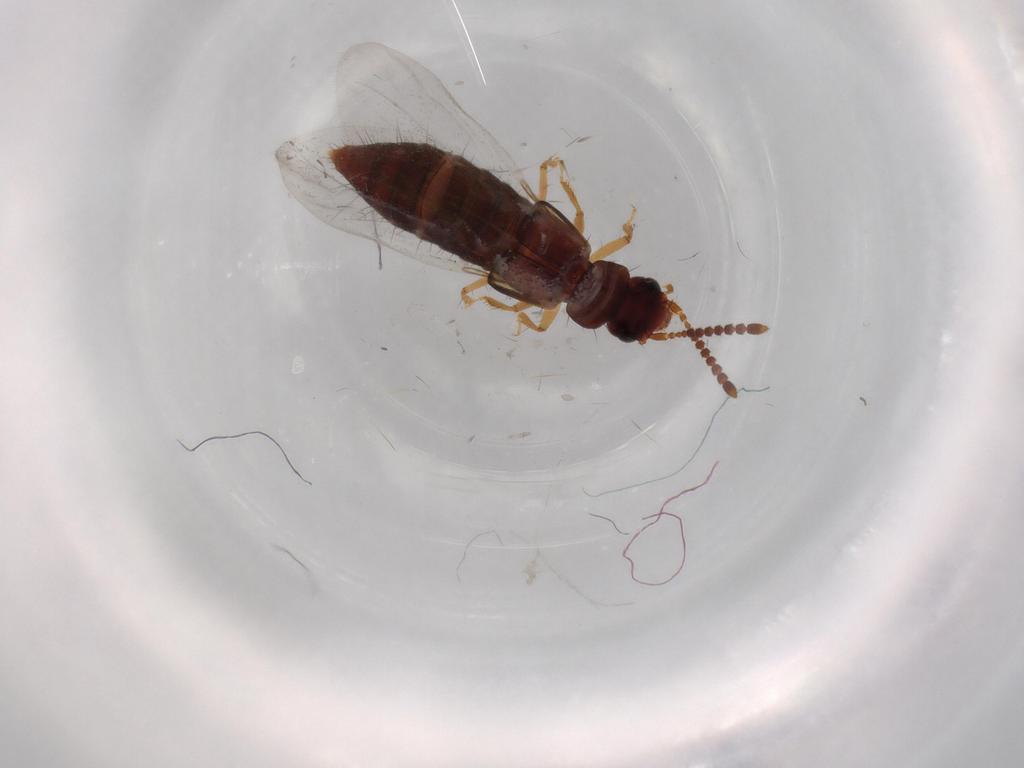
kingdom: Animalia
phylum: Arthropoda
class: Insecta
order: Coleoptera
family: Staphylinidae
